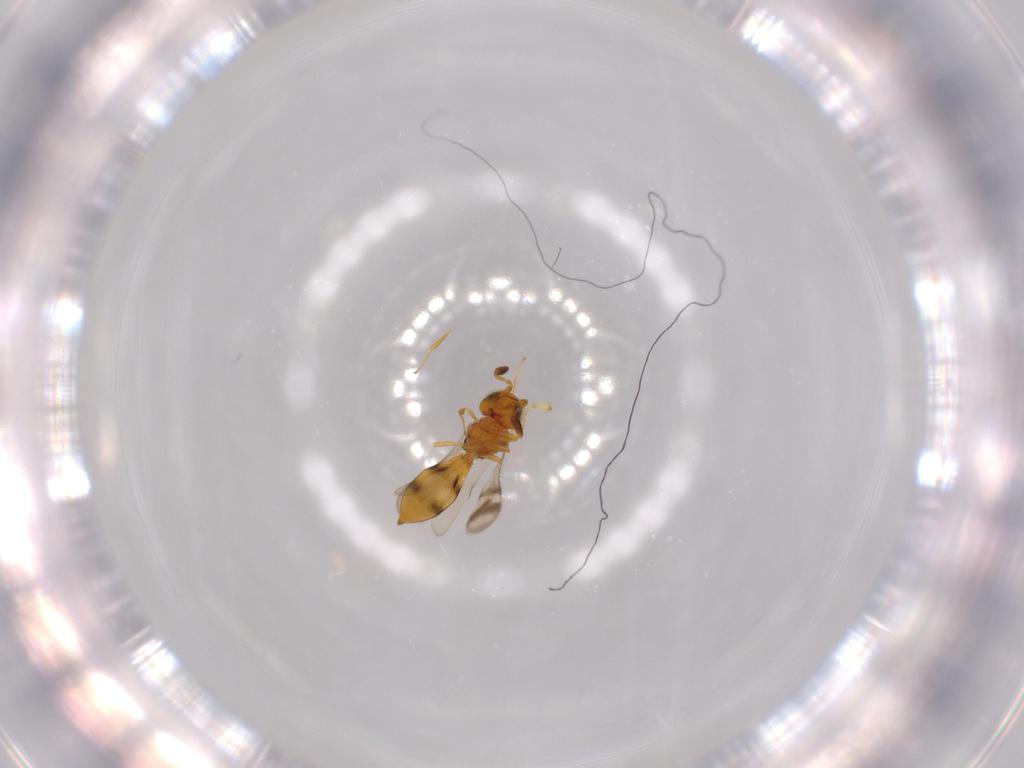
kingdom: Animalia
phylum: Arthropoda
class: Insecta
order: Hymenoptera
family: Scelionidae
